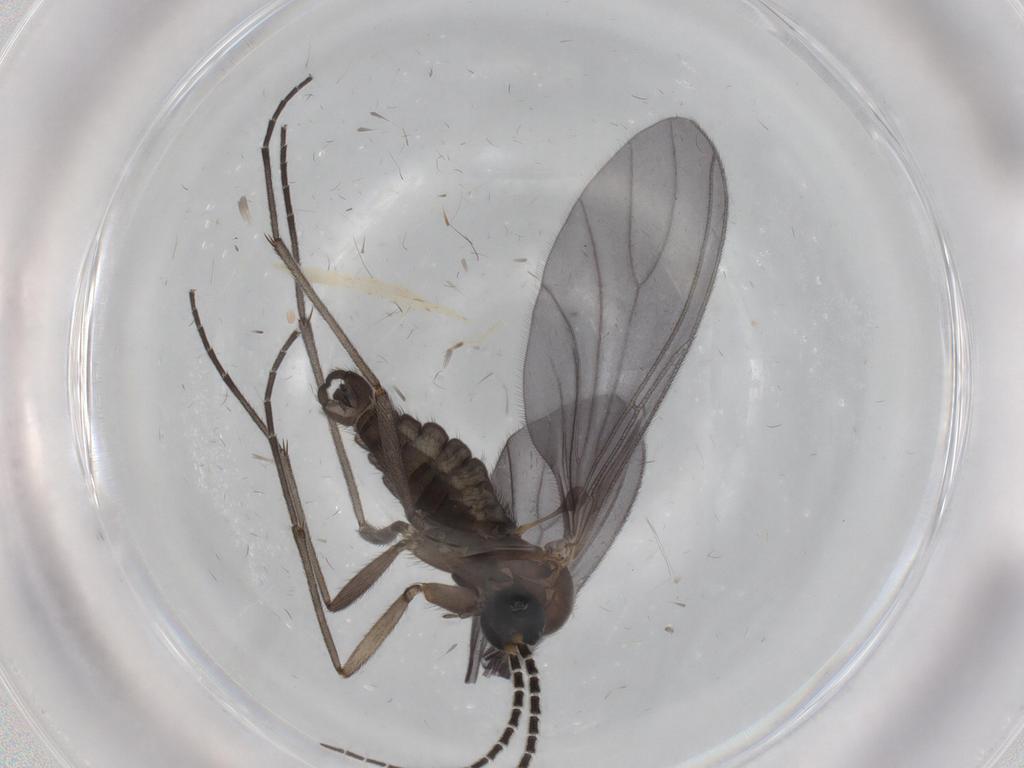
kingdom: Animalia
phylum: Arthropoda
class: Insecta
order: Diptera
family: Sciaridae
